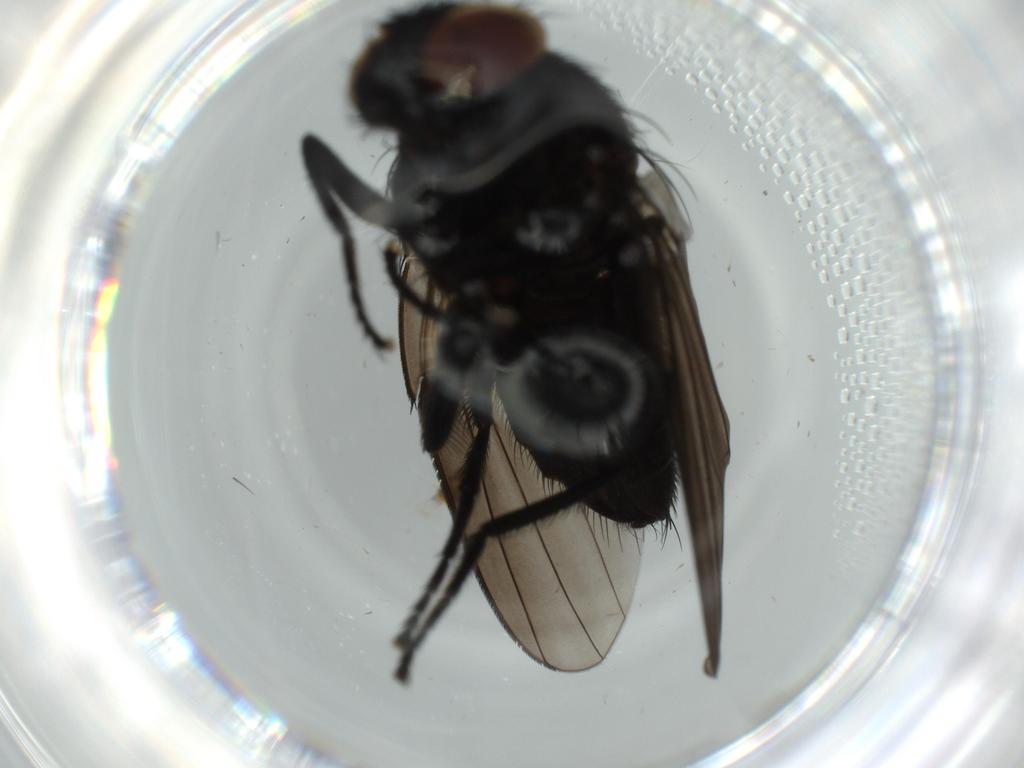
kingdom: Animalia
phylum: Arthropoda
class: Insecta
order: Diptera
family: Milichiidae
